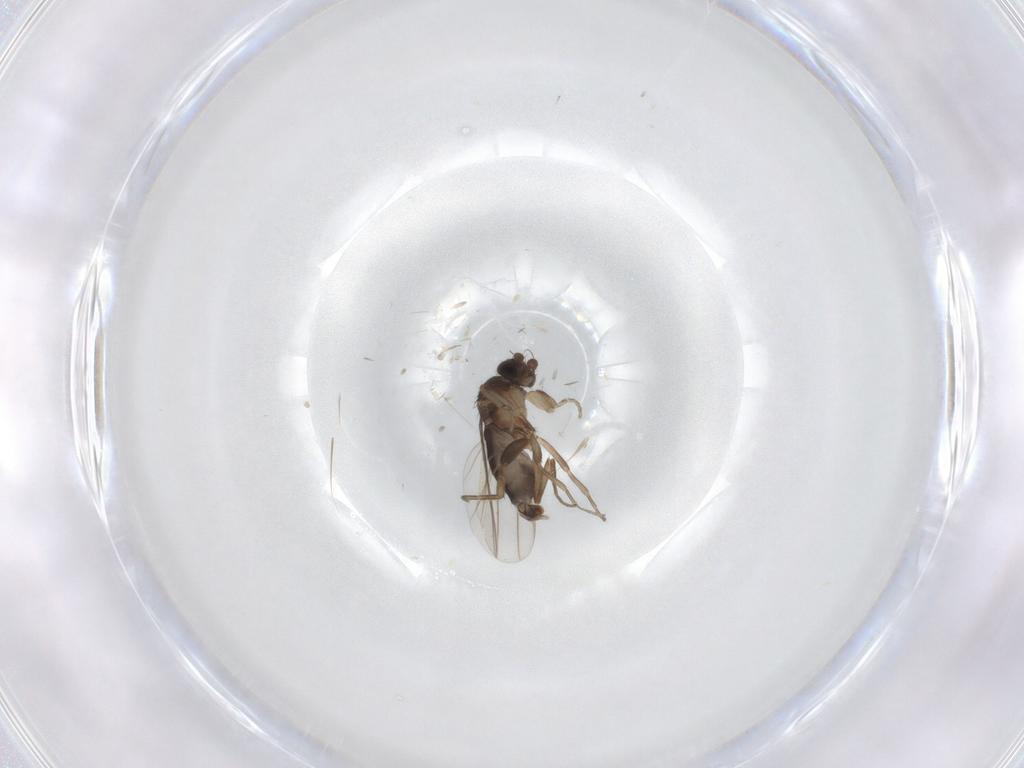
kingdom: Animalia
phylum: Arthropoda
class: Insecta
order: Diptera
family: Phoridae
